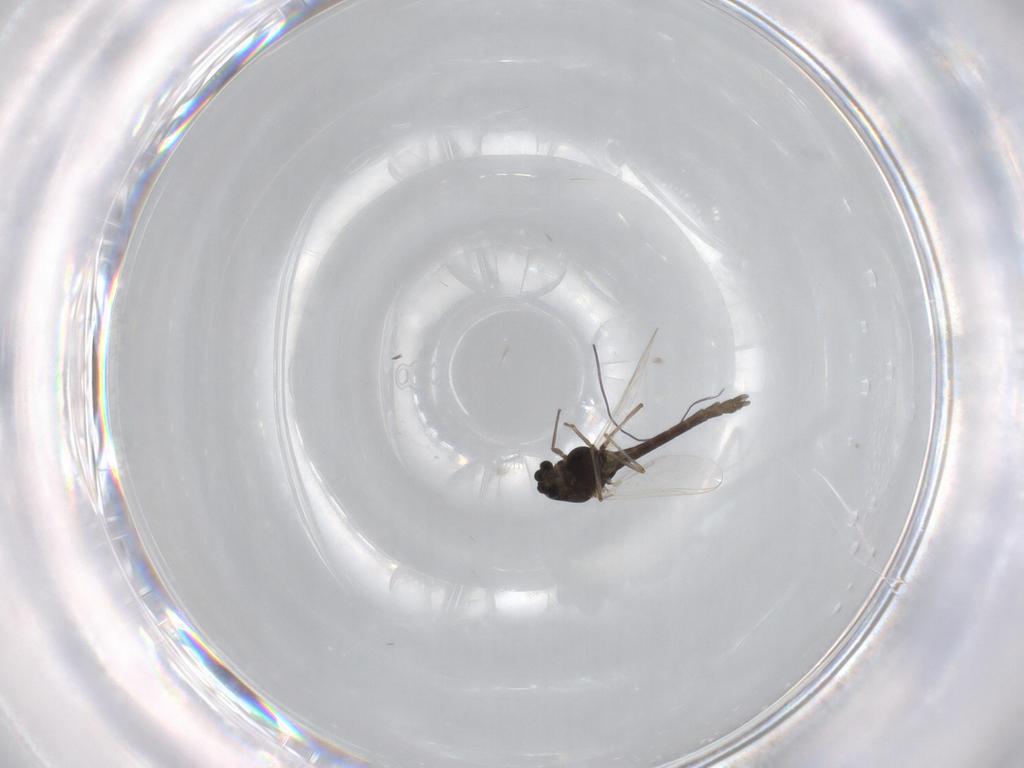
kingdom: Animalia
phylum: Arthropoda
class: Insecta
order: Diptera
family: Chironomidae
